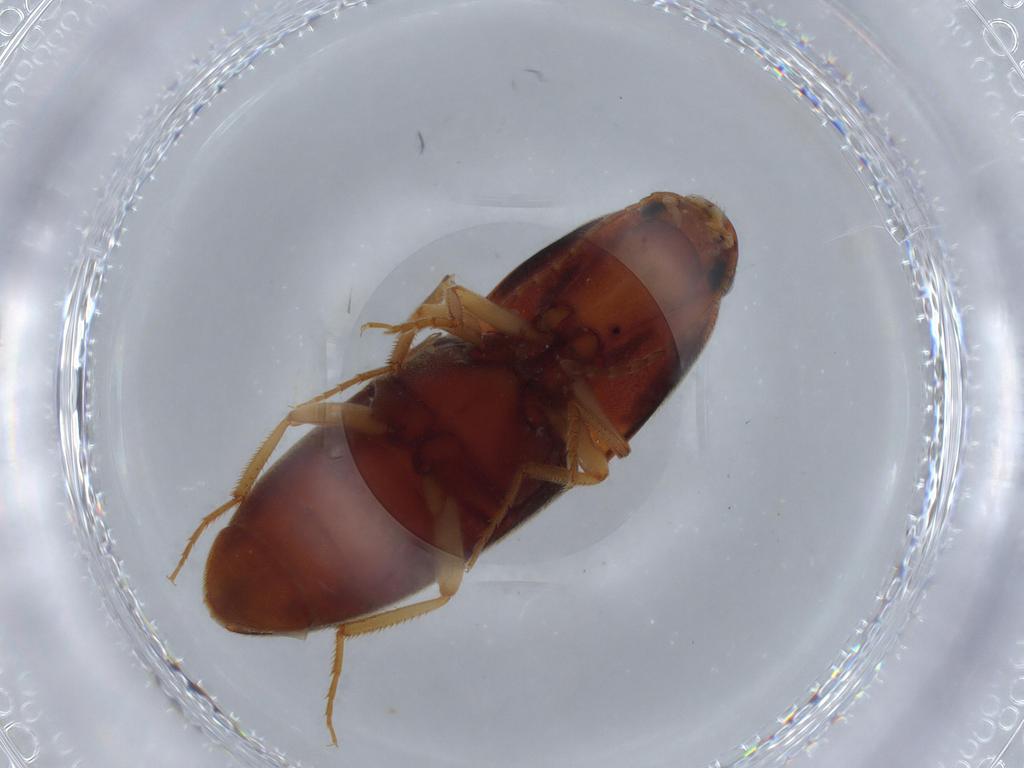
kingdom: Animalia
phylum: Arthropoda
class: Insecta
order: Coleoptera
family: Elateridae
